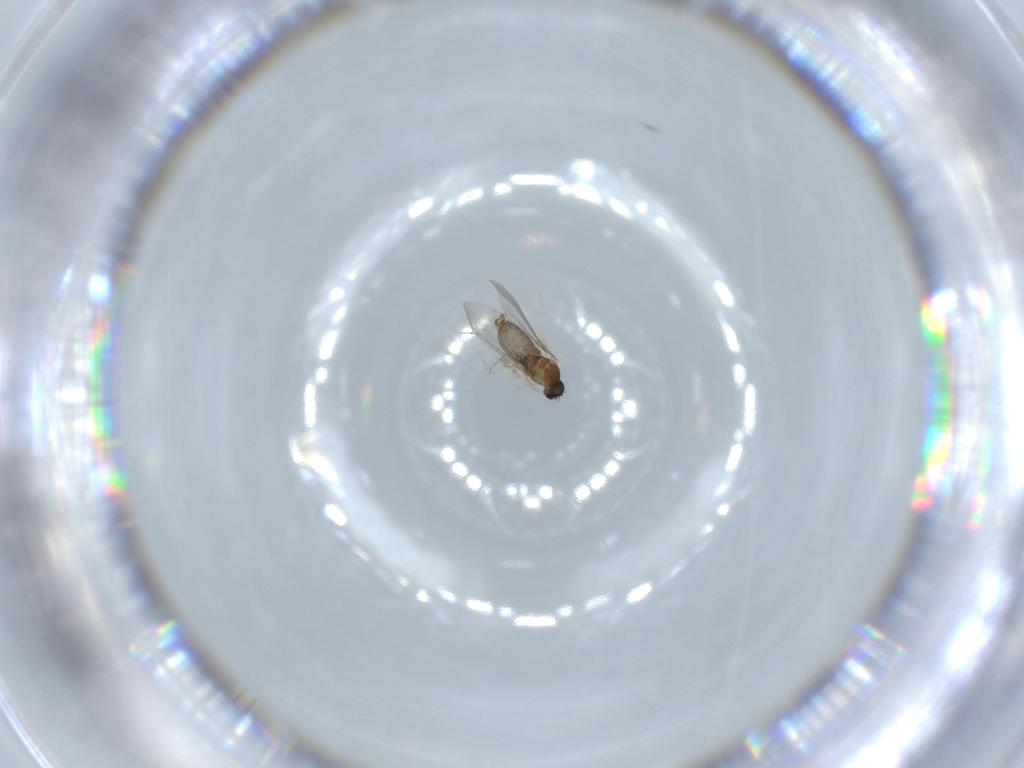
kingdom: Animalia
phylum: Arthropoda
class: Insecta
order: Diptera
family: Cecidomyiidae
